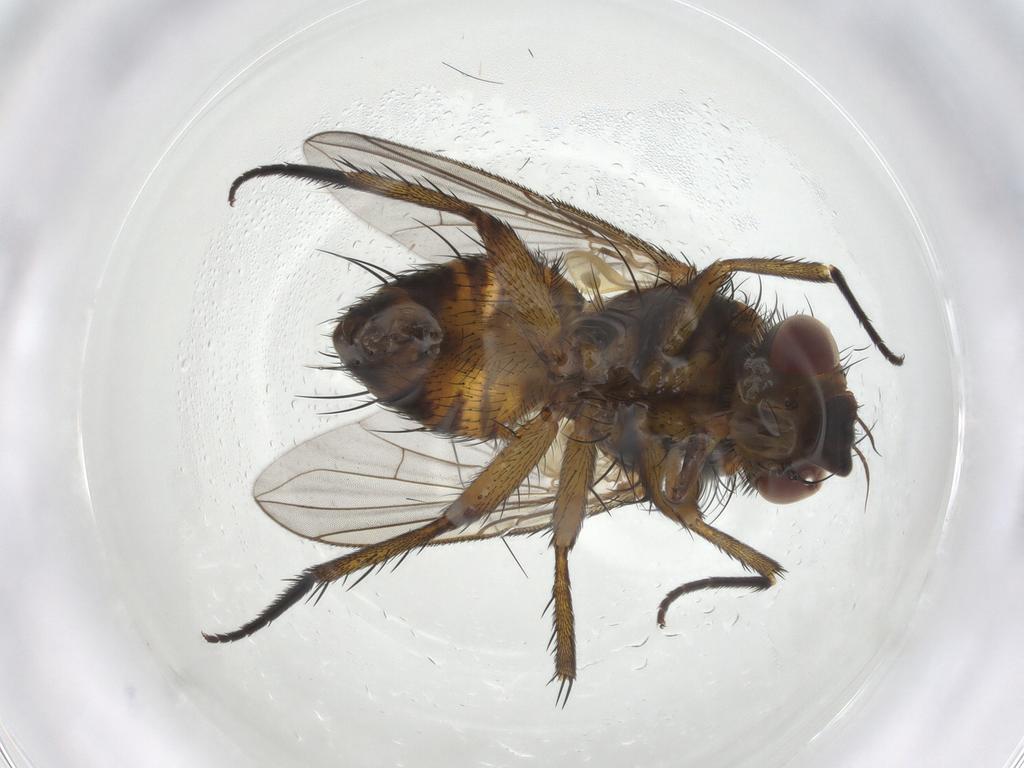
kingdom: Animalia
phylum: Arthropoda
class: Insecta
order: Diptera
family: Tachinidae
